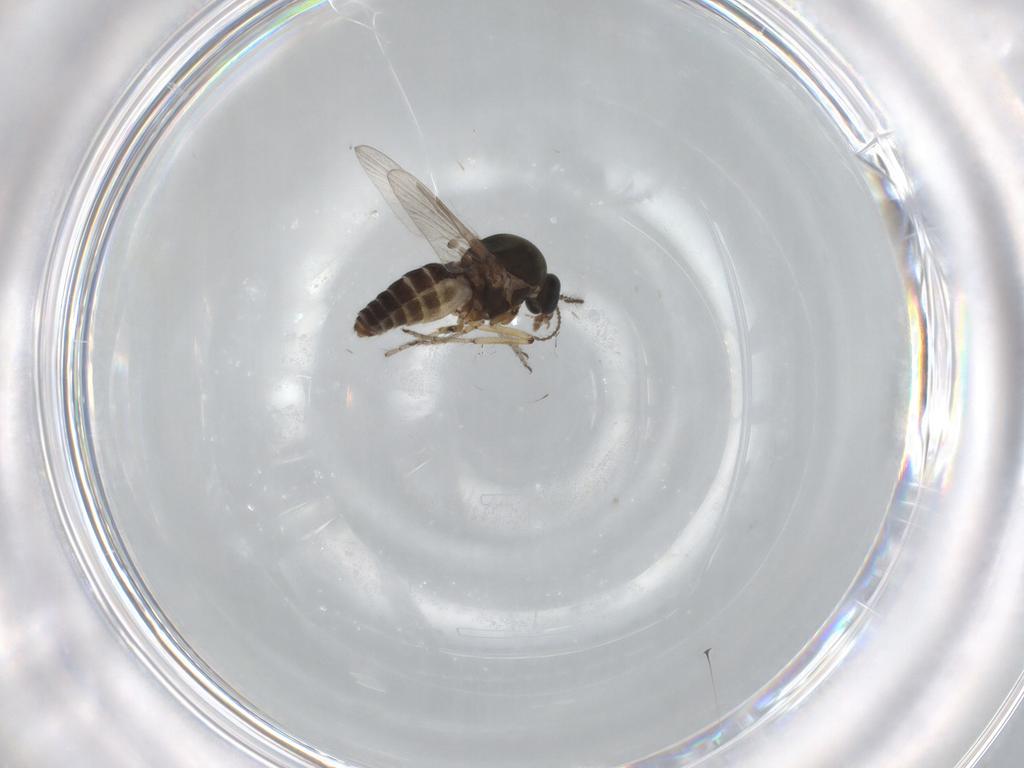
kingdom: Animalia
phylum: Arthropoda
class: Insecta
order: Diptera
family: Ceratopogonidae
